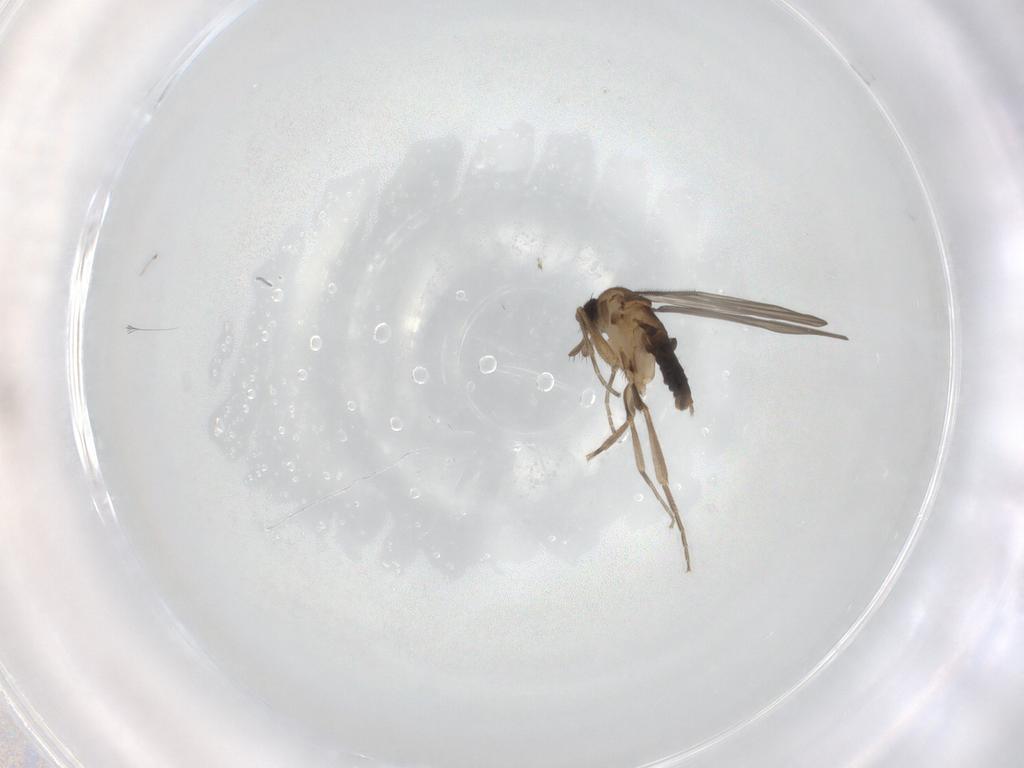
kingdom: Animalia
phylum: Arthropoda
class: Insecta
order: Diptera
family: Phoridae
